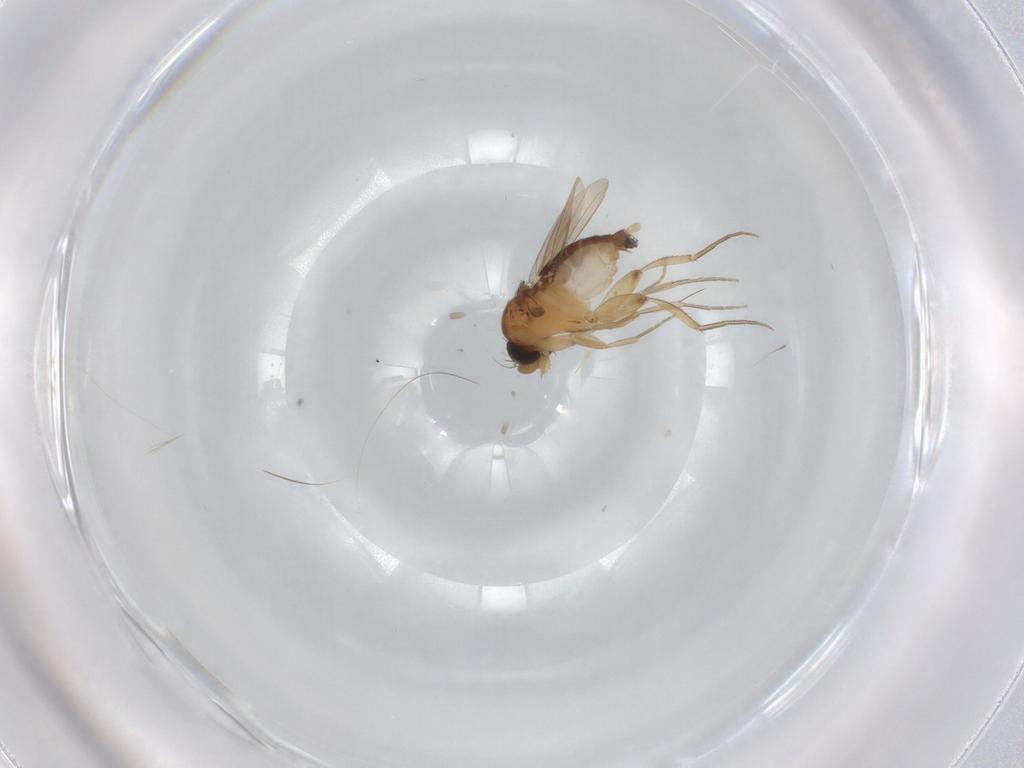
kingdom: Animalia
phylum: Arthropoda
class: Insecta
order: Diptera
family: Phoridae
